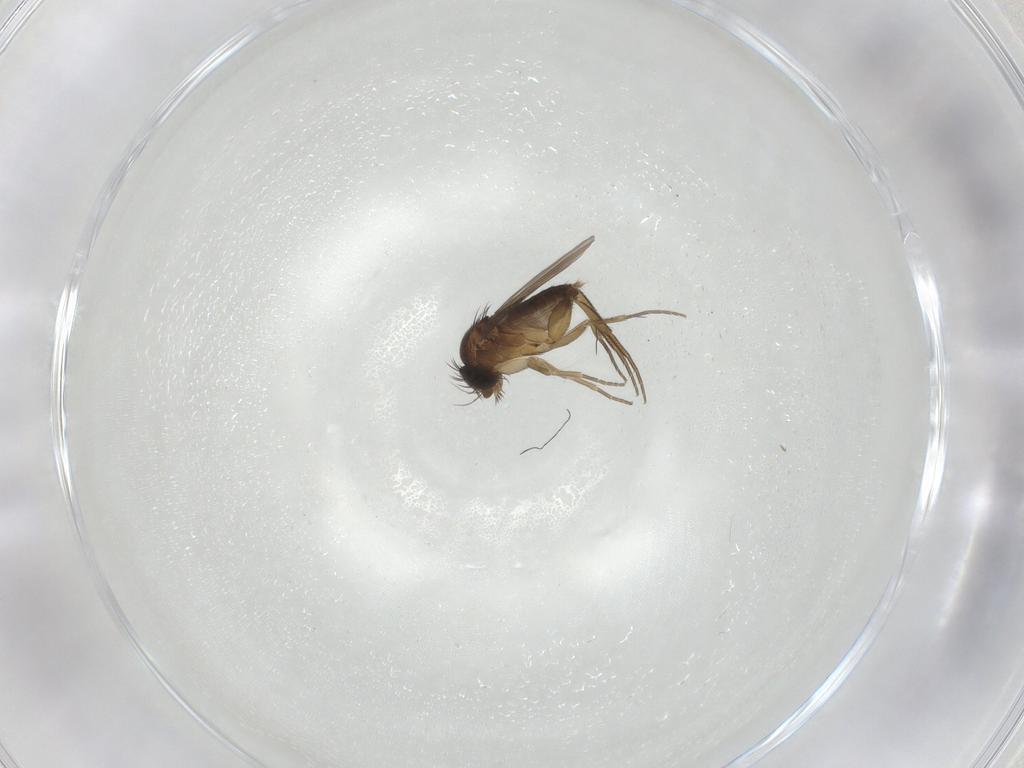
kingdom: Animalia
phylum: Arthropoda
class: Insecta
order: Diptera
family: Phoridae
